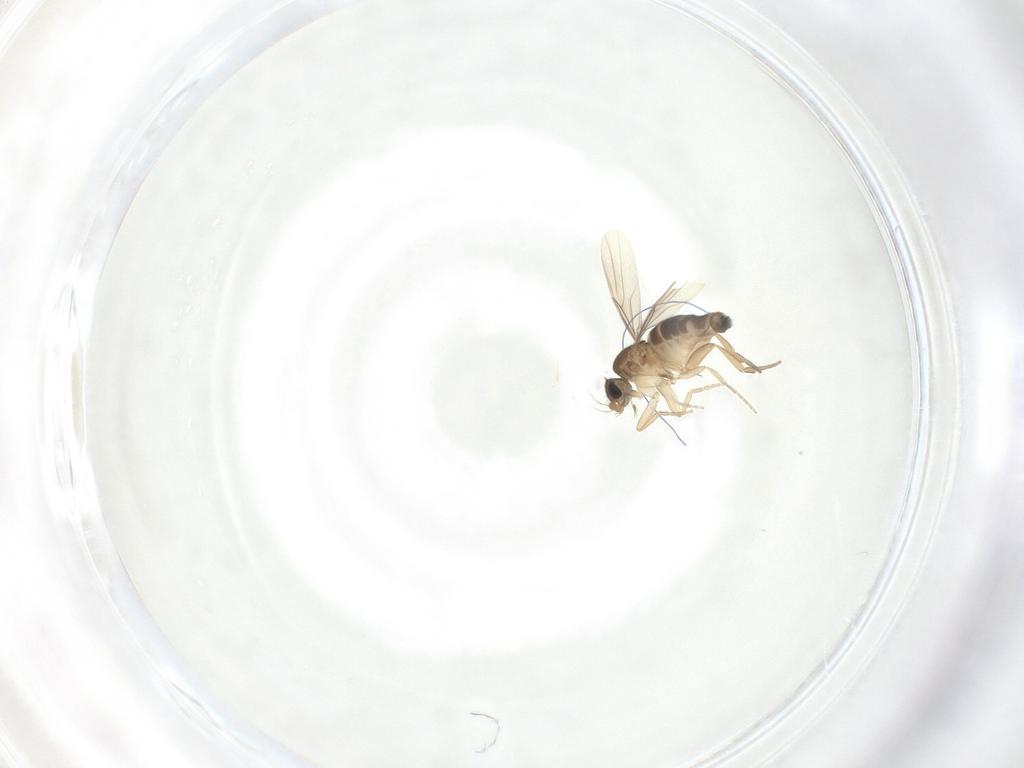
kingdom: Animalia
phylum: Arthropoda
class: Insecta
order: Diptera
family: Phoridae
